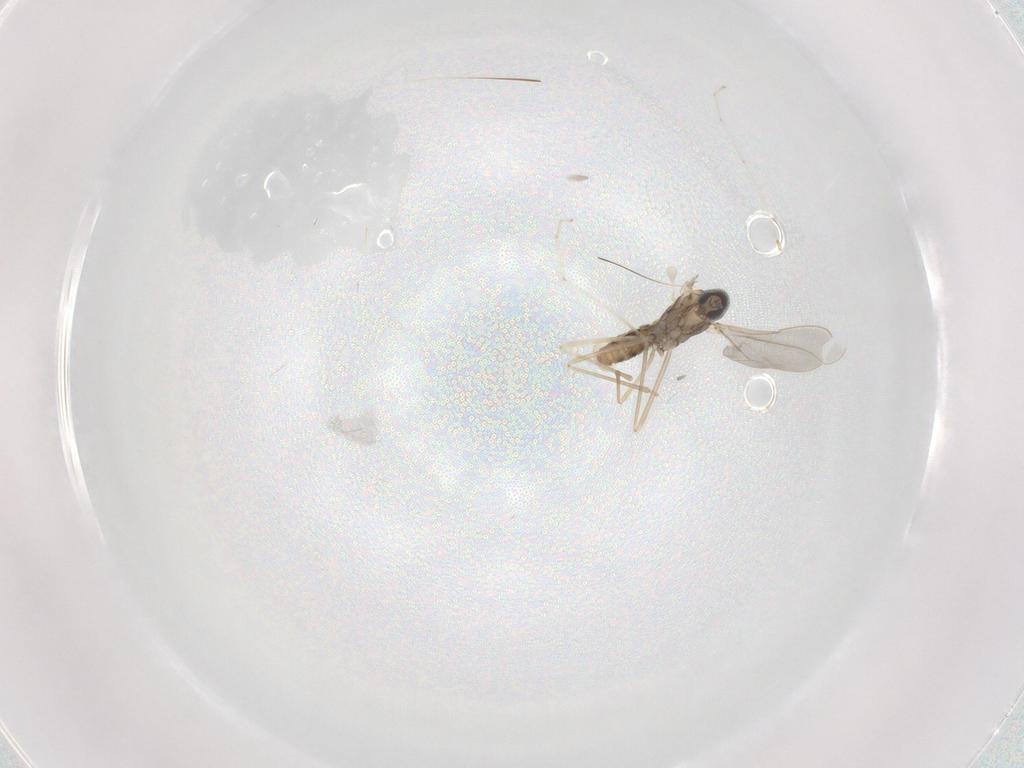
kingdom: Animalia
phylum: Arthropoda
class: Insecta
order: Diptera
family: Cecidomyiidae
